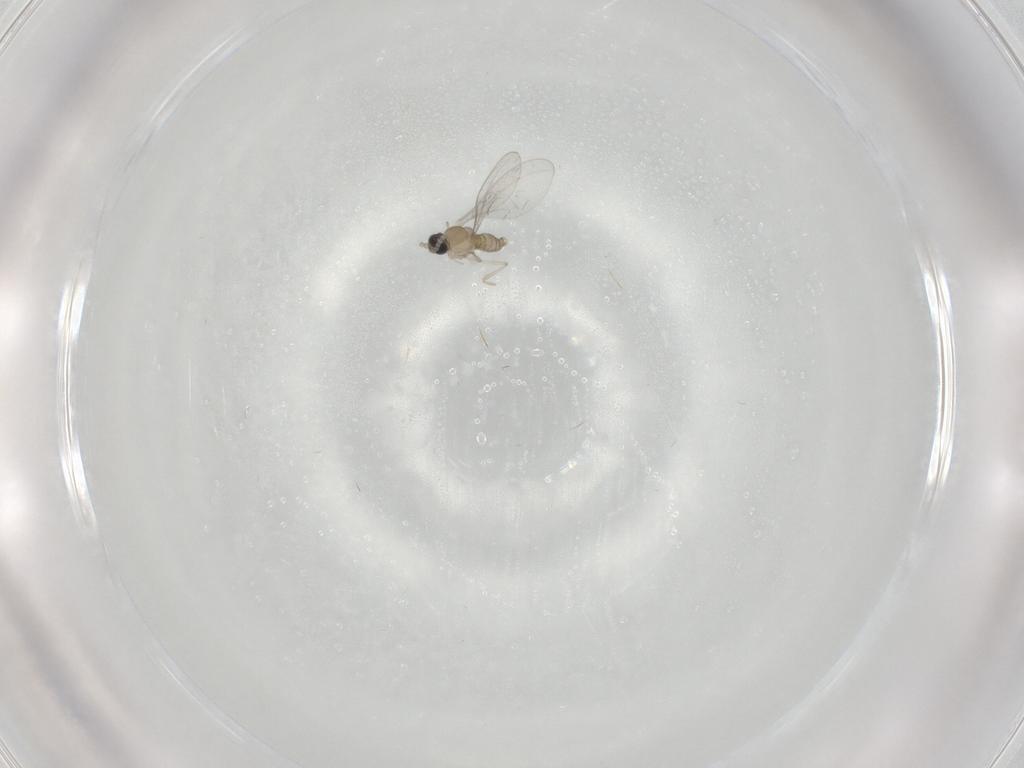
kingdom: Animalia
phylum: Arthropoda
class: Insecta
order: Diptera
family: Cecidomyiidae
